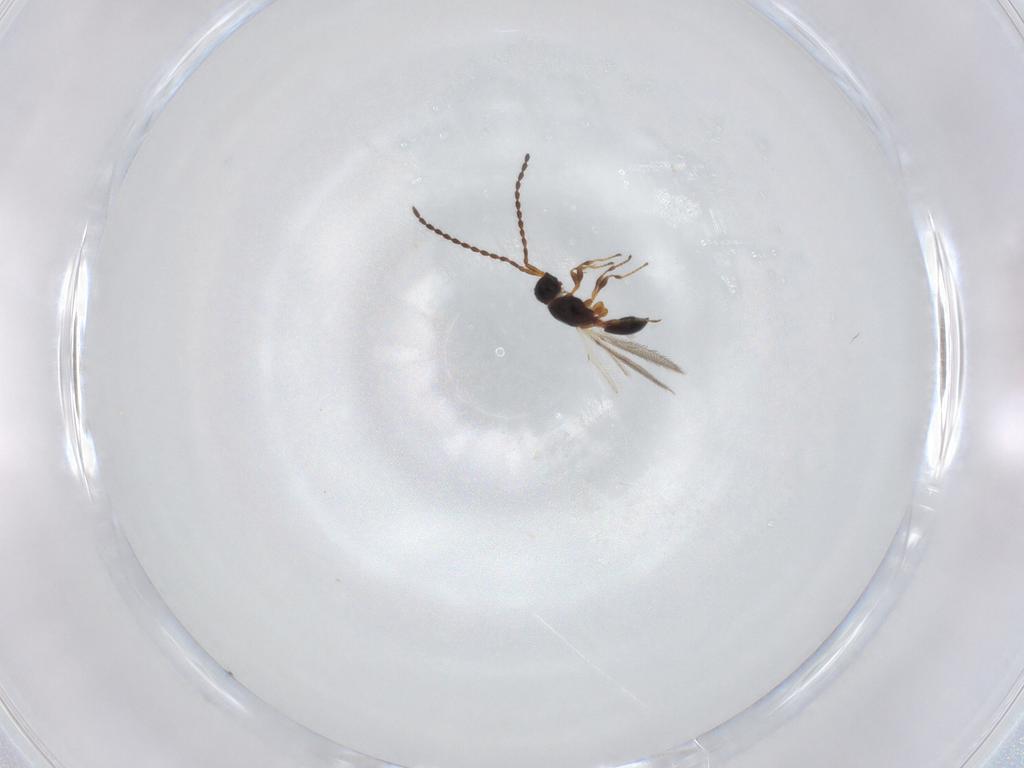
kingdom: Animalia
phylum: Arthropoda
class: Insecta
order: Hymenoptera
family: Diapriidae
